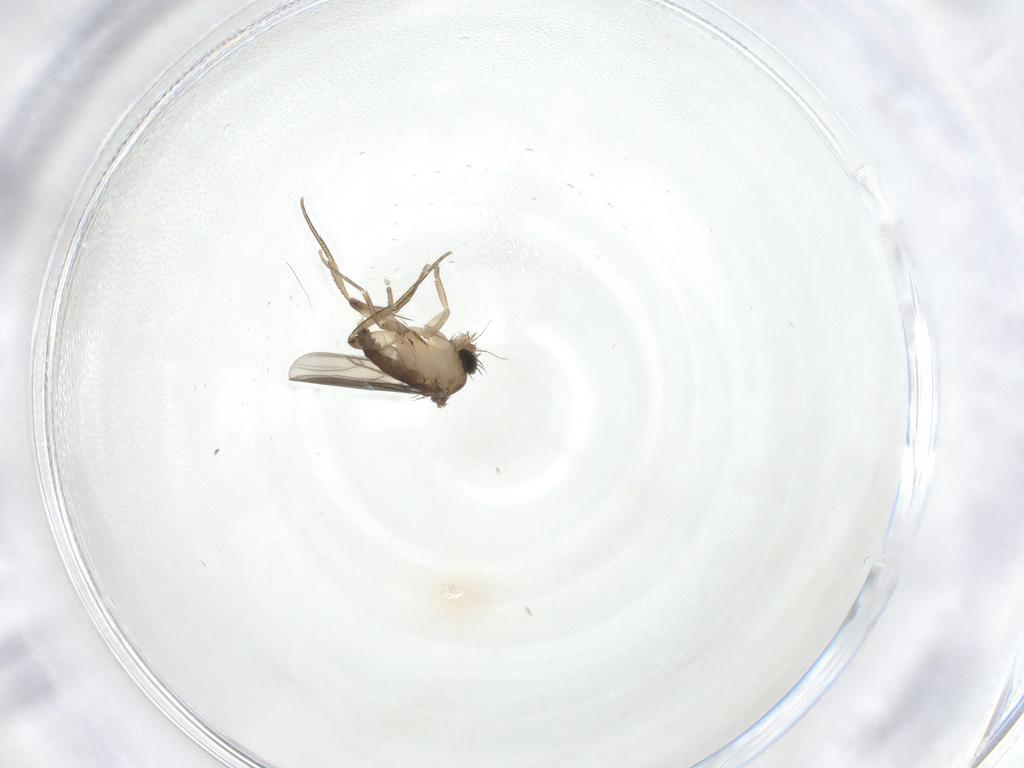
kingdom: Animalia
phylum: Arthropoda
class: Insecta
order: Diptera
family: Phoridae
